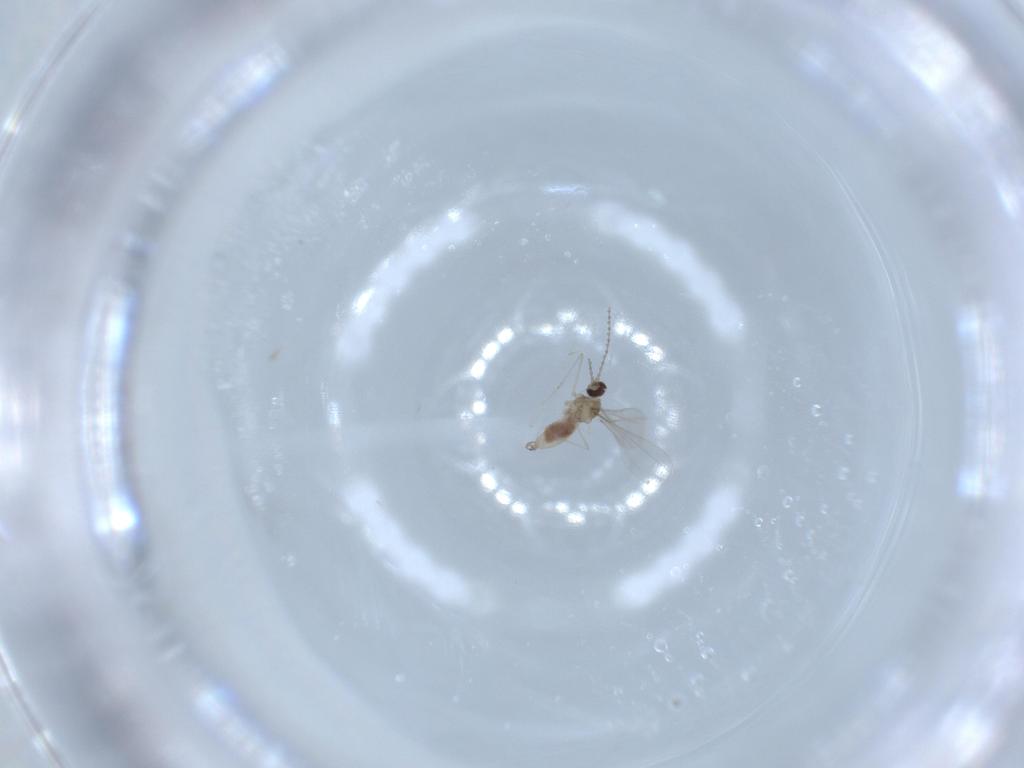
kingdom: Animalia
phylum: Arthropoda
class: Insecta
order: Diptera
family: Cecidomyiidae
